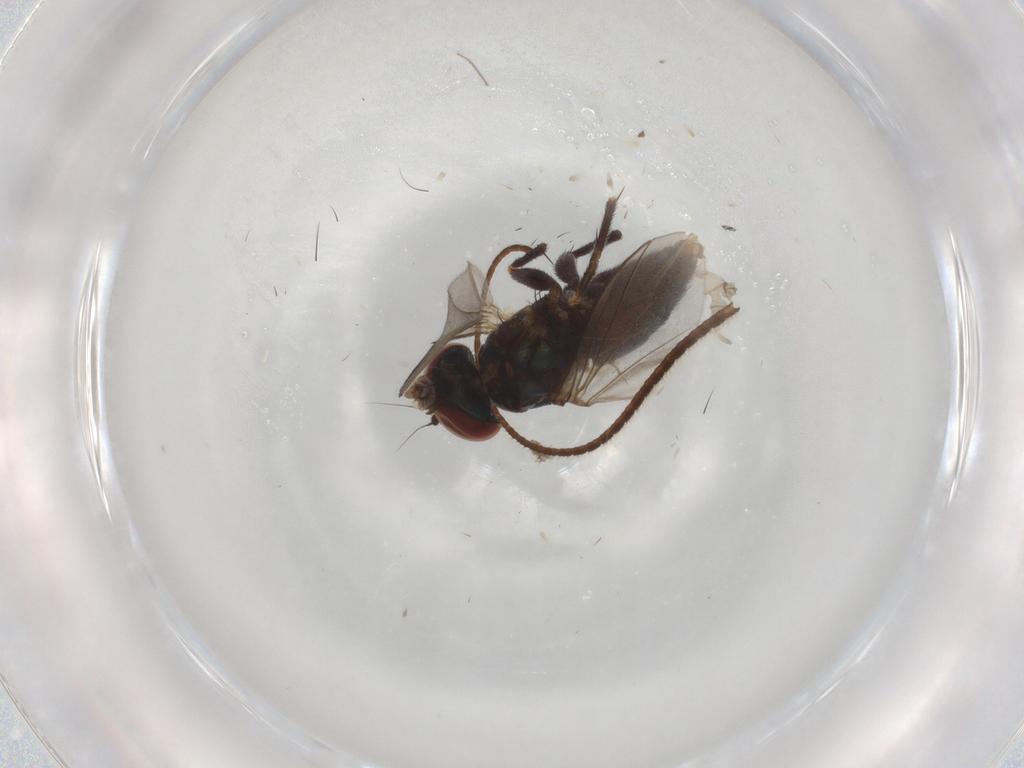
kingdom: Animalia
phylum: Arthropoda
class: Insecta
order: Diptera
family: Dolichopodidae
